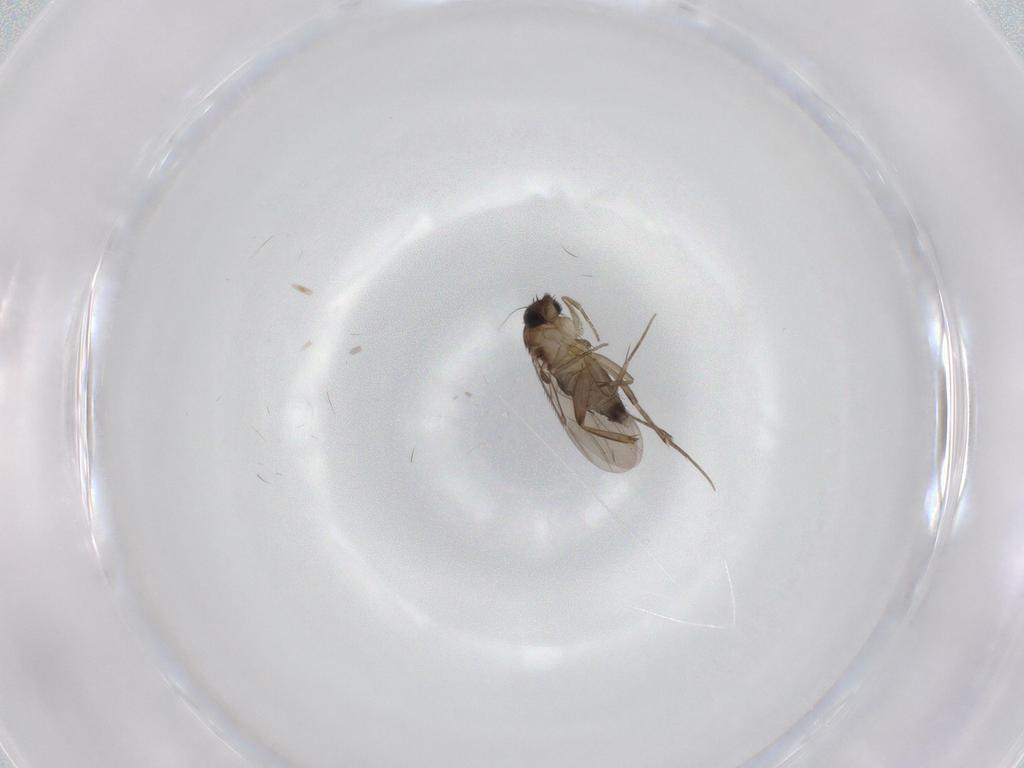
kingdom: Animalia
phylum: Arthropoda
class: Insecta
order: Diptera
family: Phoridae
